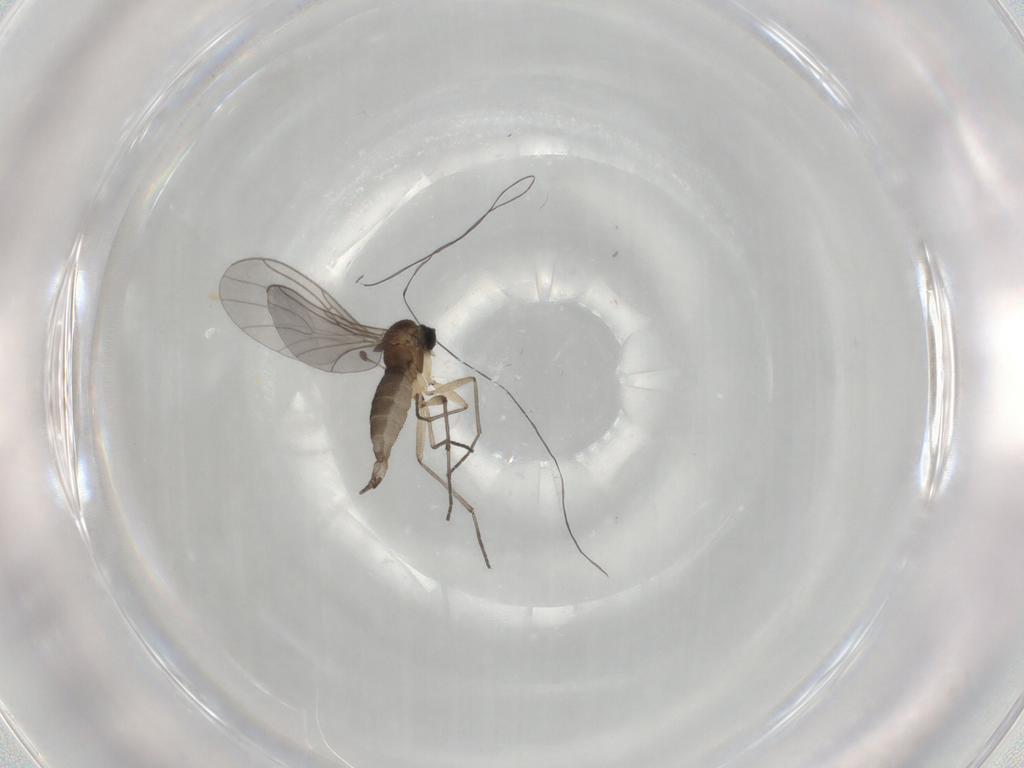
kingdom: Animalia
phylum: Arthropoda
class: Insecta
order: Diptera
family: Sciaridae
